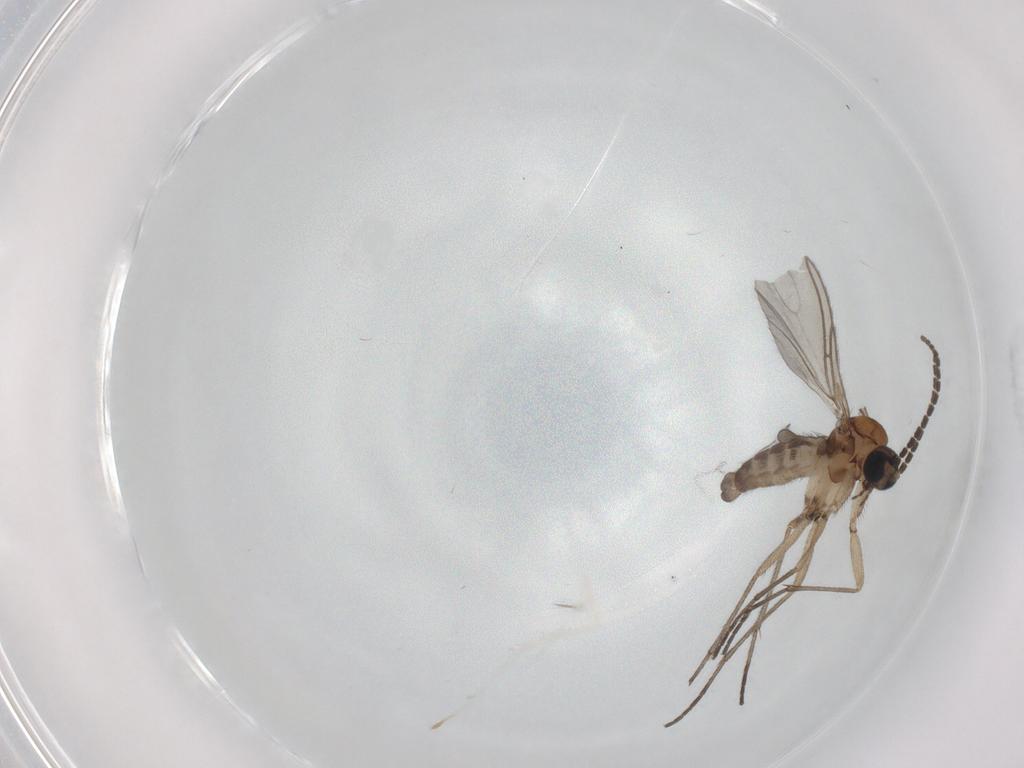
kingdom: Animalia
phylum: Arthropoda
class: Insecta
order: Diptera
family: Sciaridae
